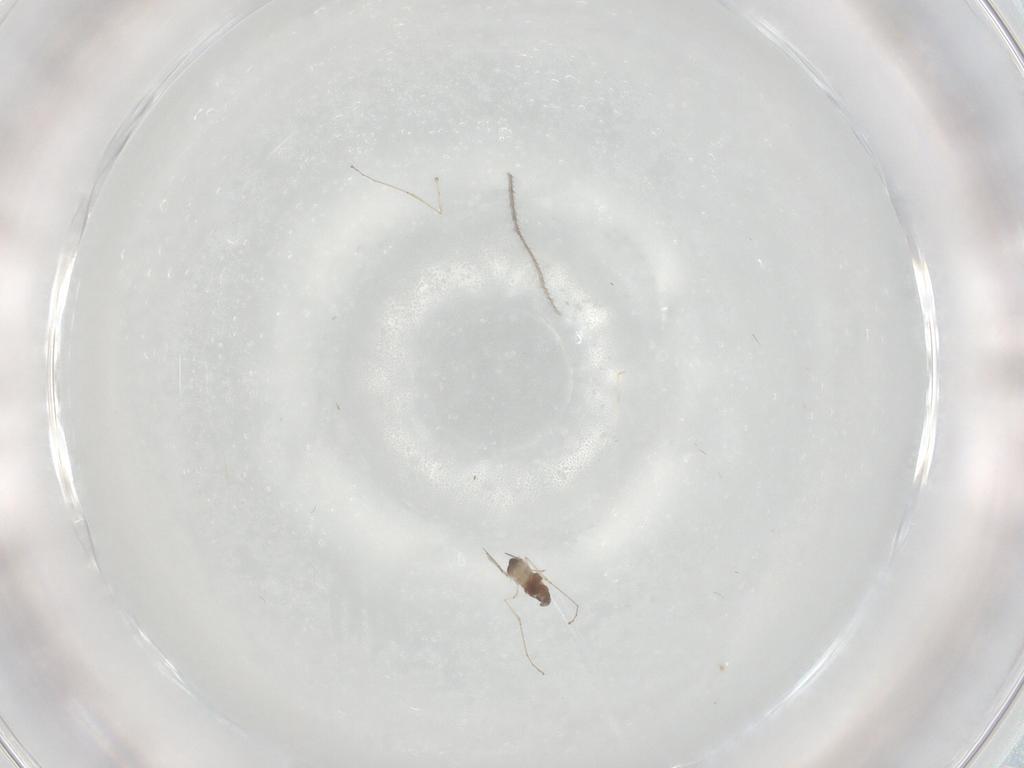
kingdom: Animalia
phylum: Arthropoda
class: Insecta
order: Diptera
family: Cecidomyiidae
